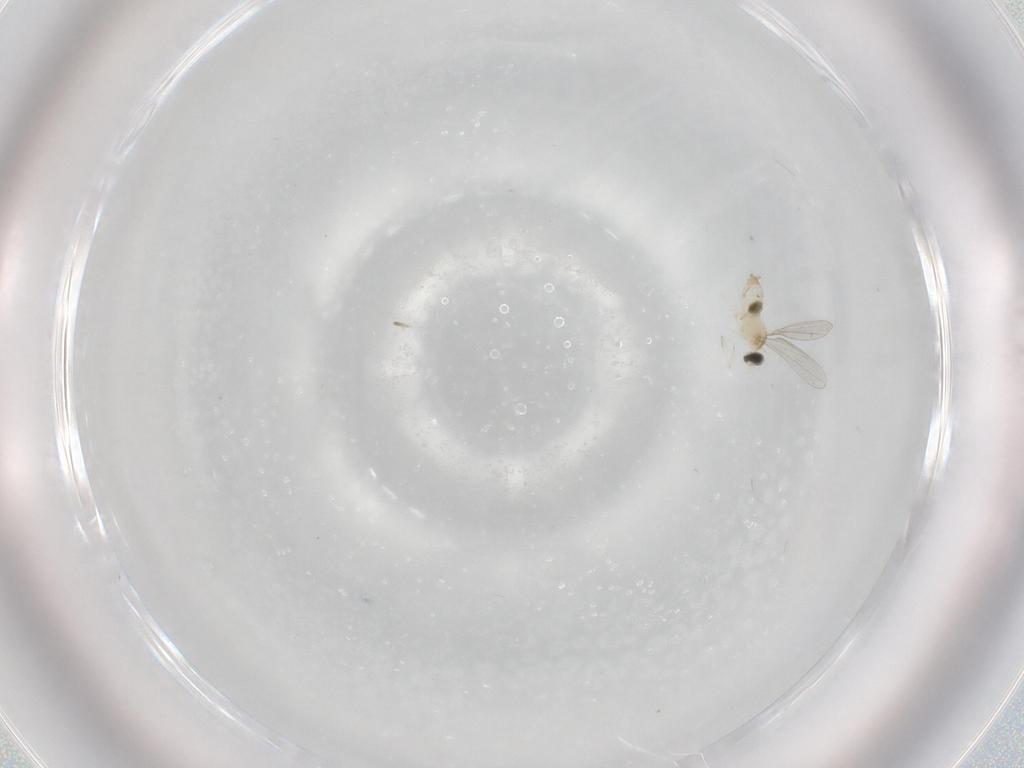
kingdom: Animalia
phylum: Arthropoda
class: Insecta
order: Diptera
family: Cecidomyiidae
